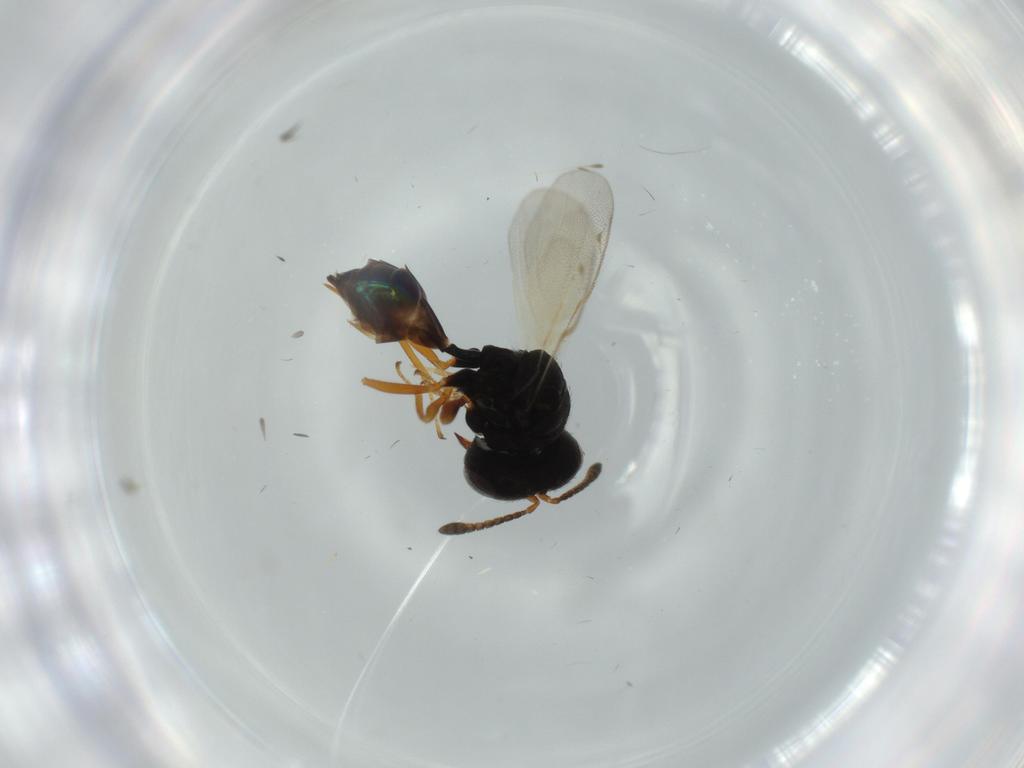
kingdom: Animalia
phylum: Arthropoda
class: Insecta
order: Hymenoptera
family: Pteromalidae
